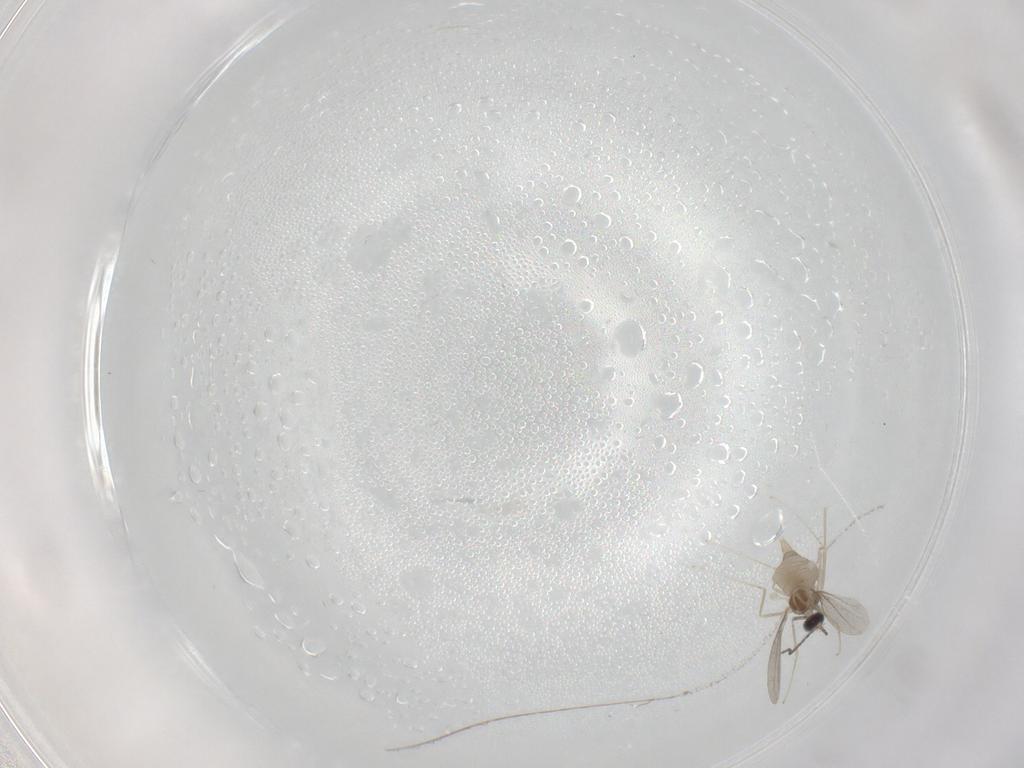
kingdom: Animalia
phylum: Arthropoda
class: Insecta
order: Diptera
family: Cecidomyiidae
